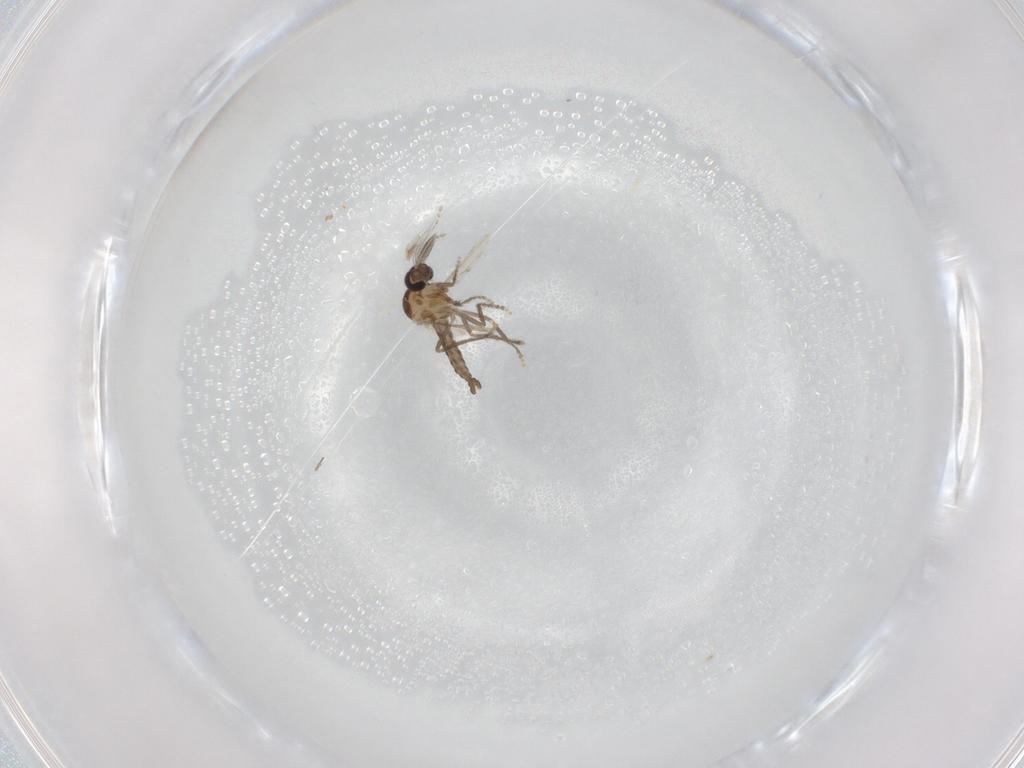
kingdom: Animalia
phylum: Arthropoda
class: Insecta
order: Diptera
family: Ceratopogonidae
